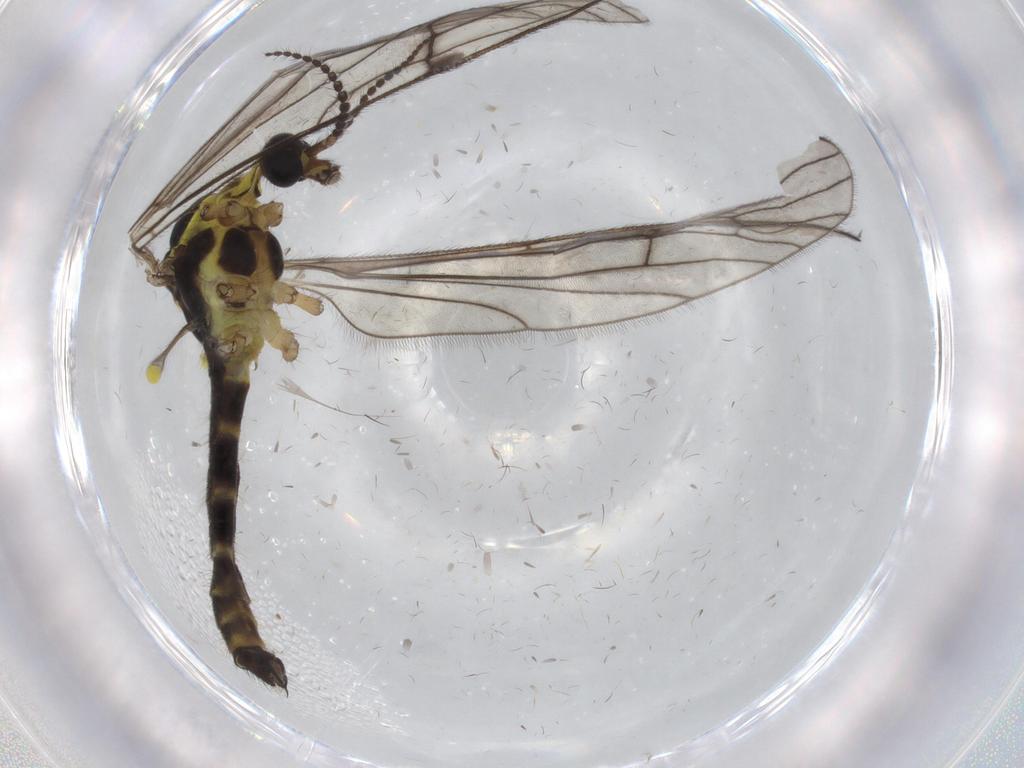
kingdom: Animalia
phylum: Arthropoda
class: Insecta
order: Diptera
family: Limoniidae
